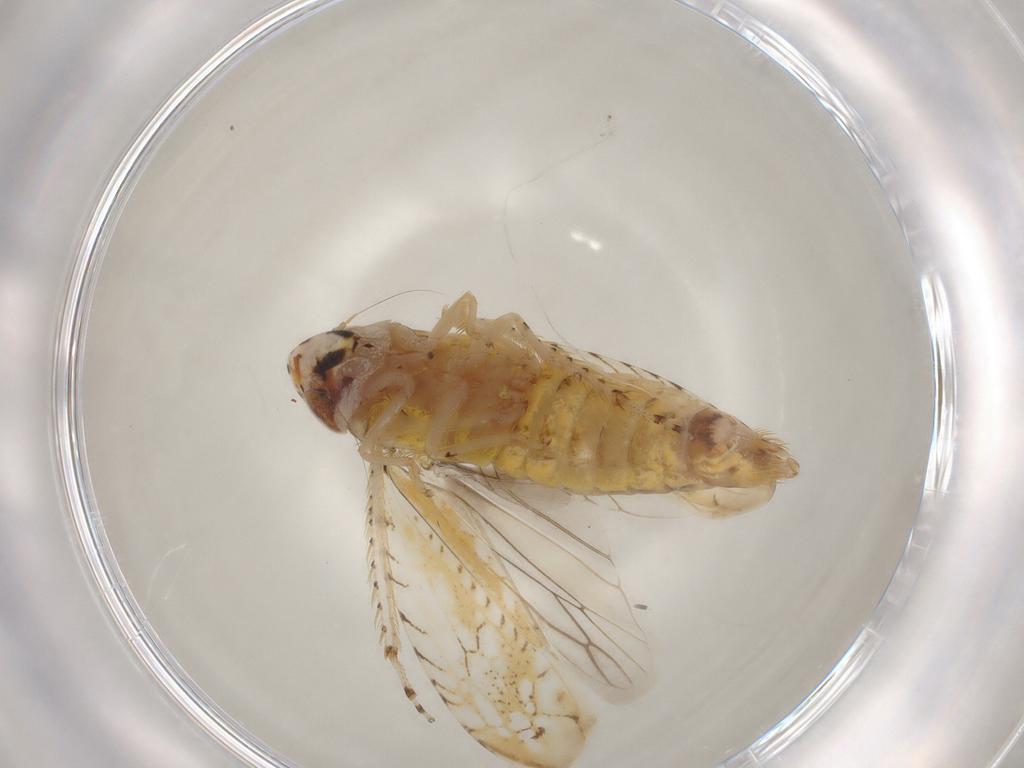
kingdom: Animalia
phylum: Arthropoda
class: Insecta
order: Hemiptera
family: Cicadellidae
